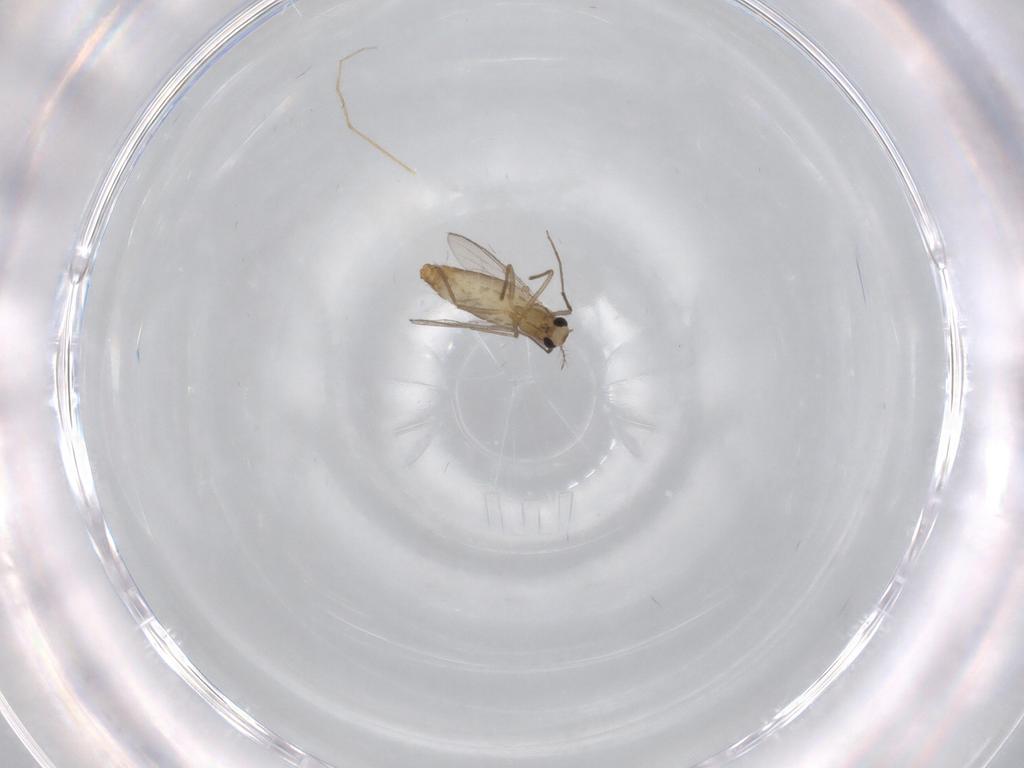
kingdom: Animalia
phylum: Arthropoda
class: Insecta
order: Diptera
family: Chironomidae
